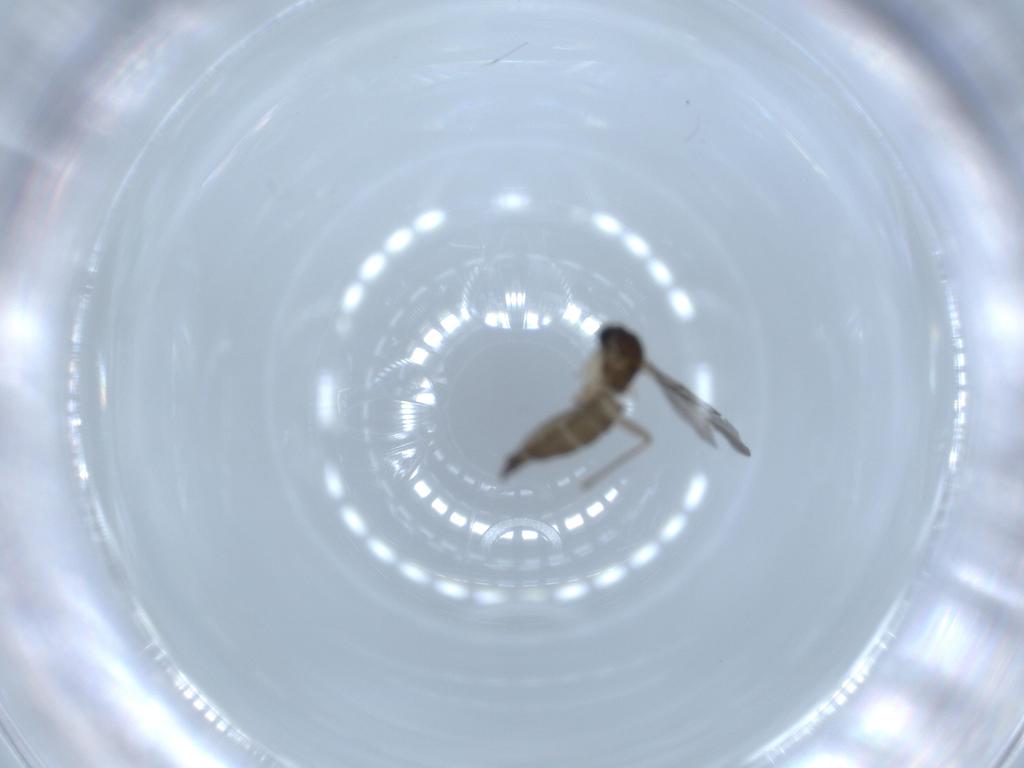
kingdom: Animalia
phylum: Arthropoda
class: Insecta
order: Diptera
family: Sciaridae
